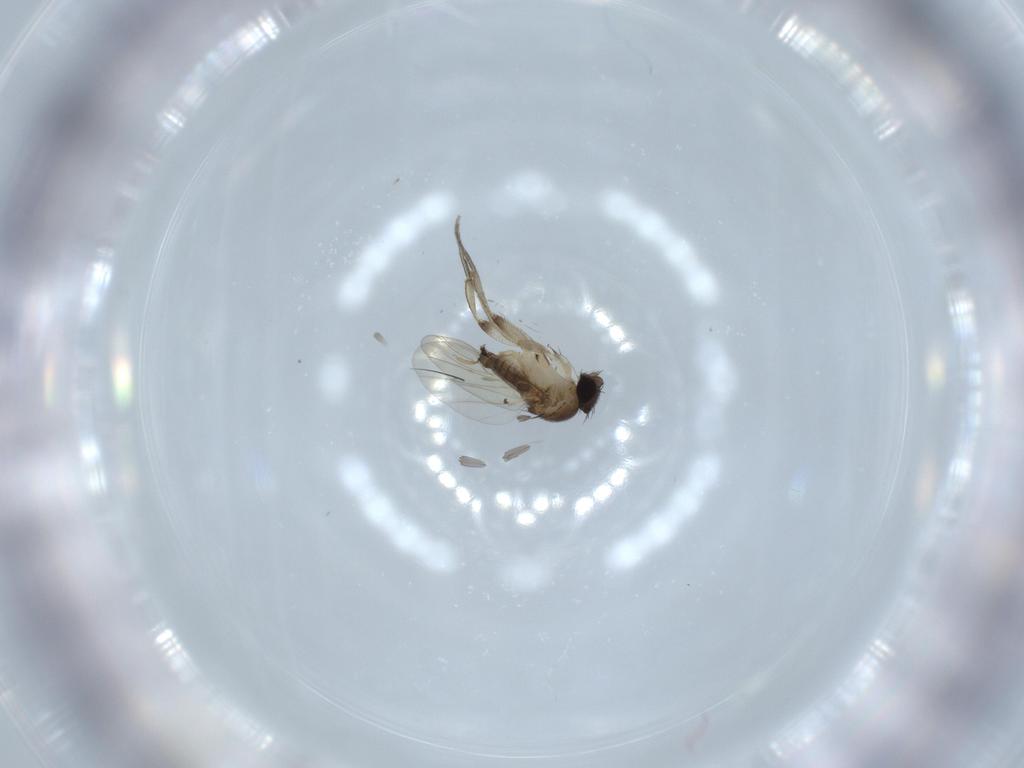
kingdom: Animalia
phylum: Arthropoda
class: Insecta
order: Diptera
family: Phoridae
